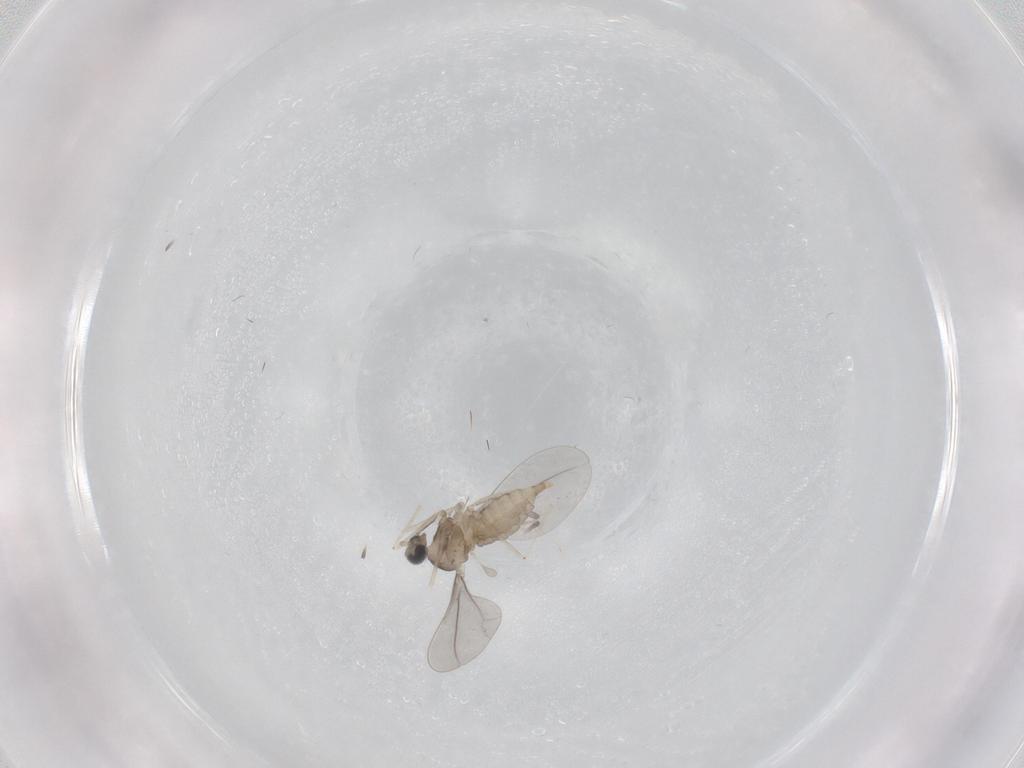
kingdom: Animalia
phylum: Arthropoda
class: Insecta
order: Diptera
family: Cecidomyiidae
